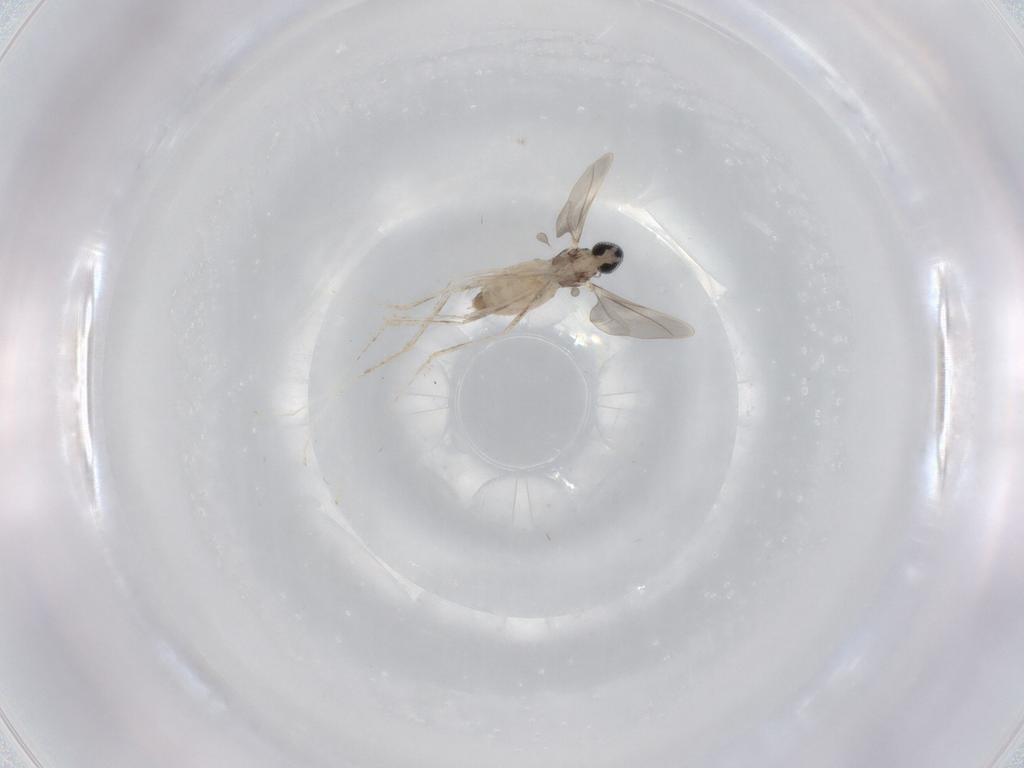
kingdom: Animalia
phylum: Arthropoda
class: Insecta
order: Diptera
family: Cecidomyiidae
